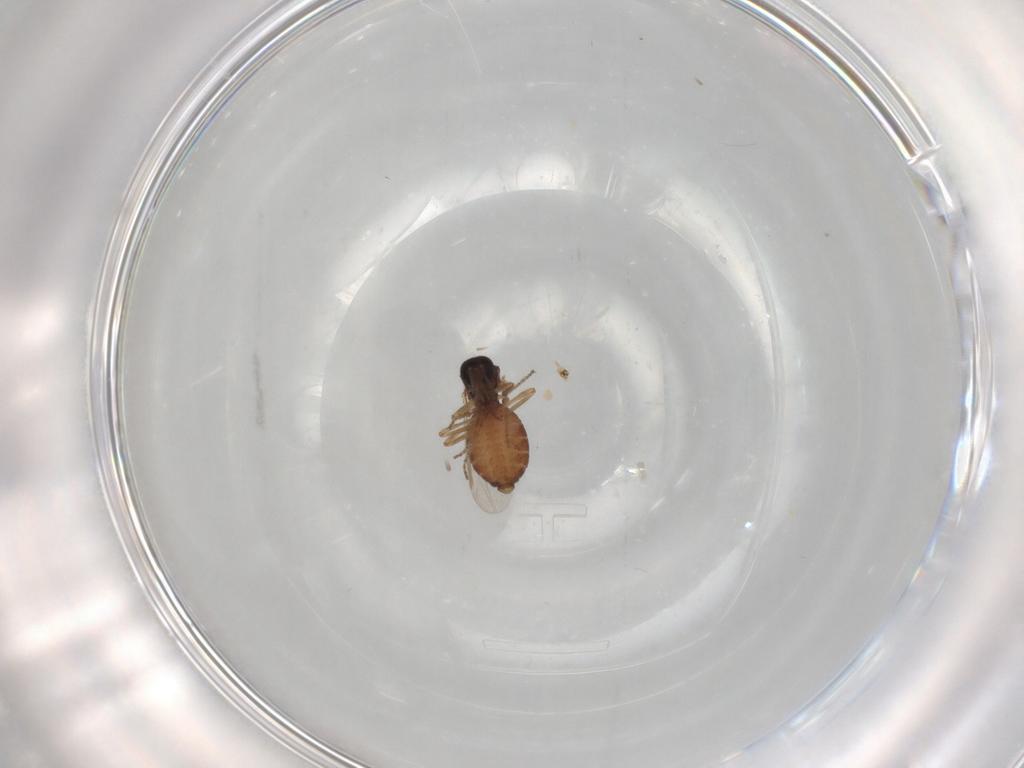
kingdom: Animalia
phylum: Arthropoda
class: Insecta
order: Diptera
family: Ceratopogonidae
